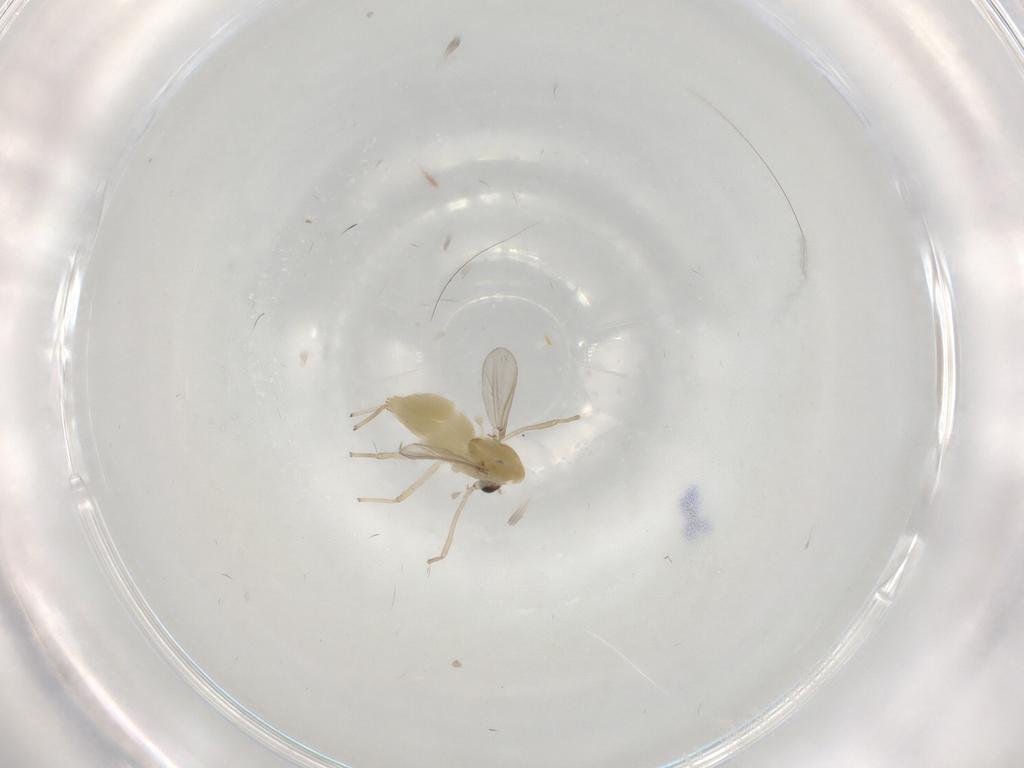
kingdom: Animalia
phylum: Arthropoda
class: Insecta
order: Diptera
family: Chironomidae
